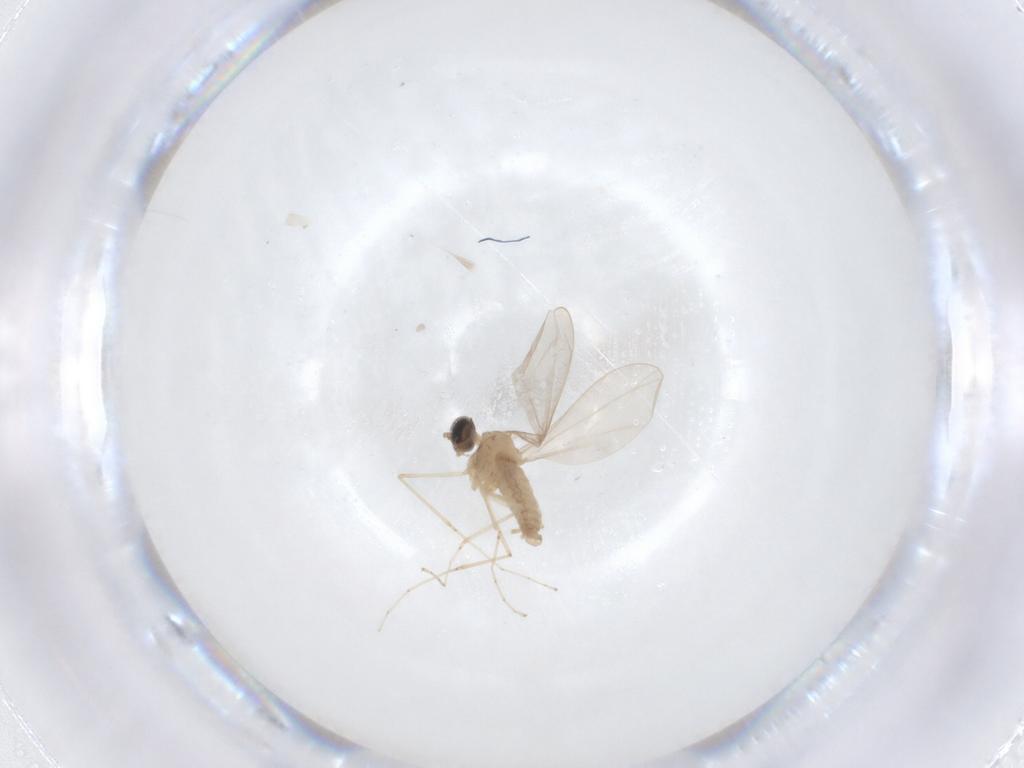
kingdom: Animalia
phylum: Arthropoda
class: Insecta
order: Diptera
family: Cecidomyiidae
